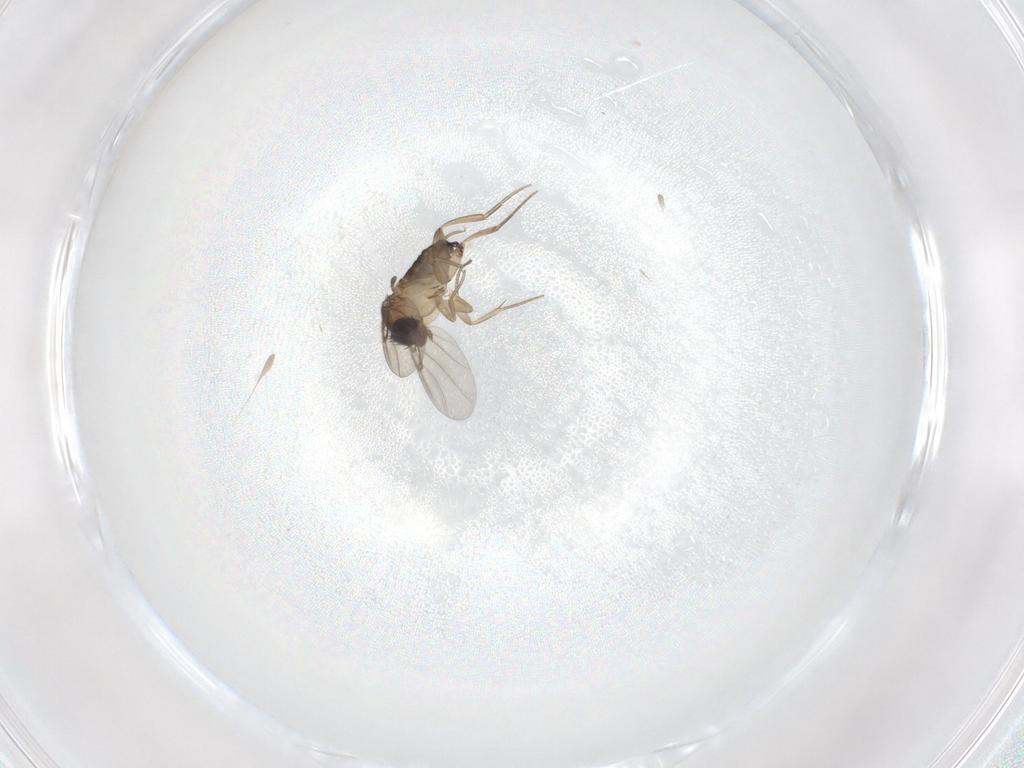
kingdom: Animalia
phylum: Arthropoda
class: Insecta
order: Diptera
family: Phoridae
